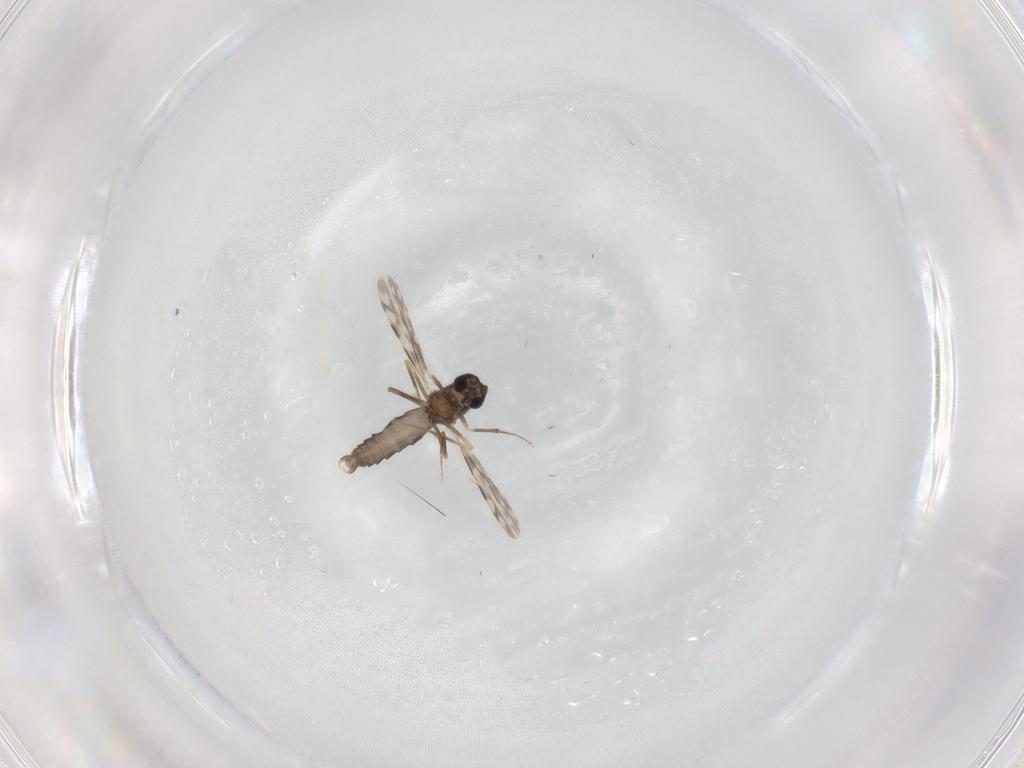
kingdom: Animalia
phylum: Arthropoda
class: Insecta
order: Diptera
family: Ceratopogonidae
